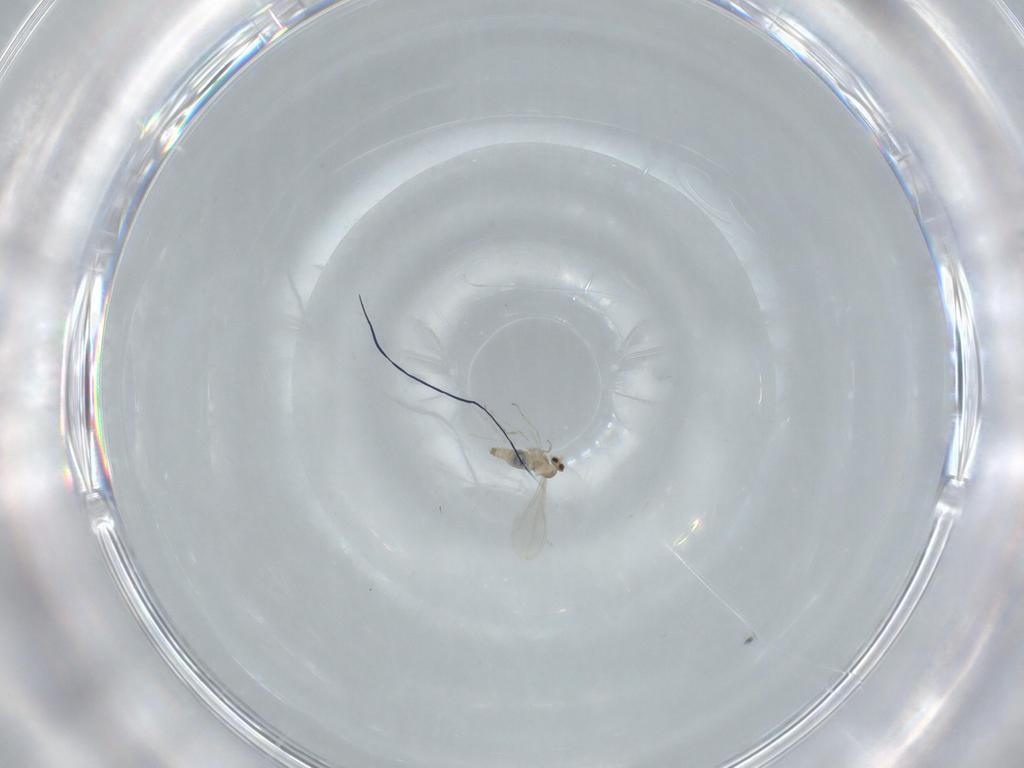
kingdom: Animalia
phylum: Arthropoda
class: Insecta
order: Diptera
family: Cecidomyiidae
